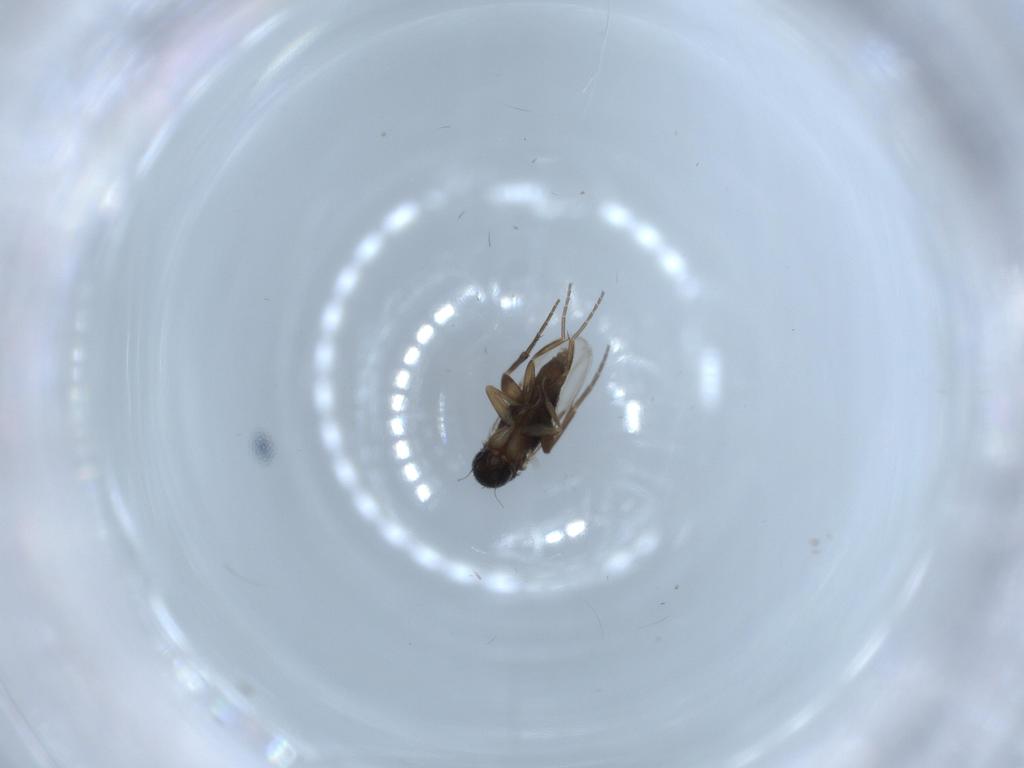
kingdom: Animalia
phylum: Arthropoda
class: Insecta
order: Diptera
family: Phoridae
